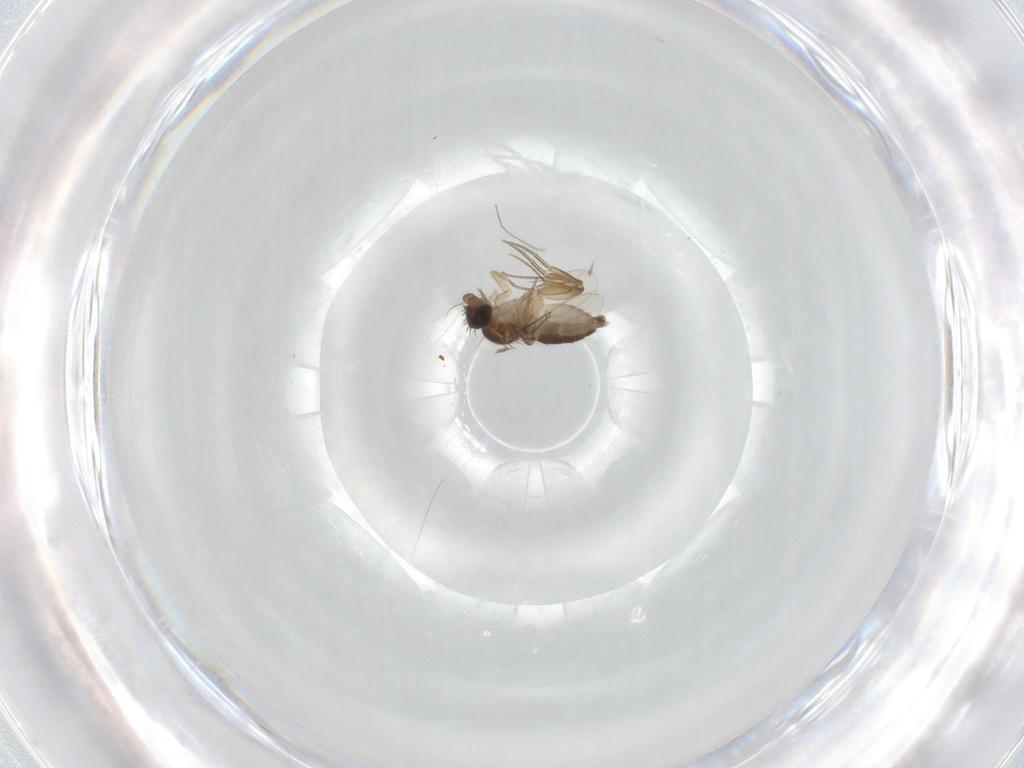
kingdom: Animalia
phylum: Arthropoda
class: Insecta
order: Diptera
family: Phoridae
